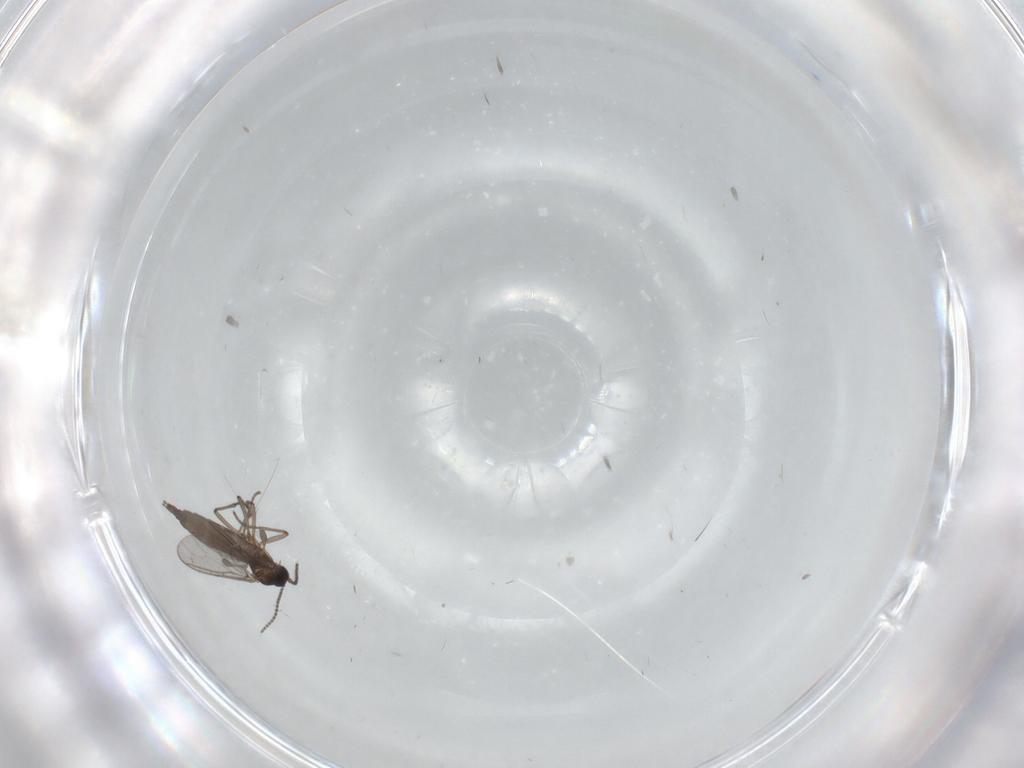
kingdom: Animalia
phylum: Arthropoda
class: Insecta
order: Diptera
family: Sciaridae
